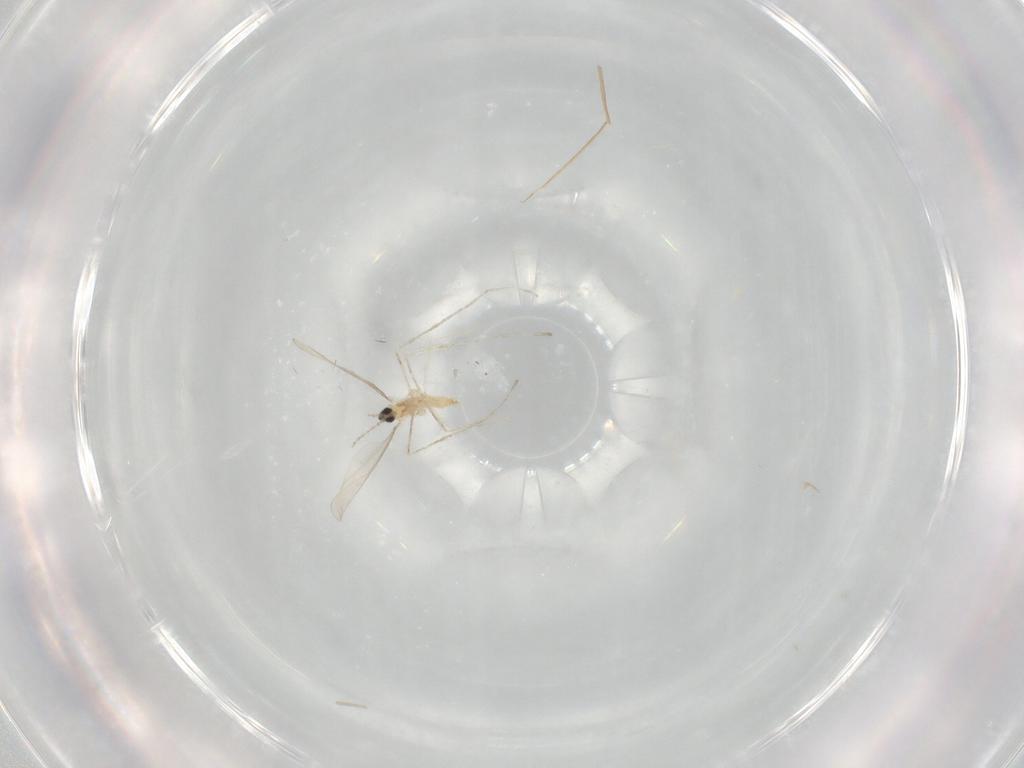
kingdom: Animalia
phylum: Arthropoda
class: Insecta
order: Diptera
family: Cecidomyiidae
